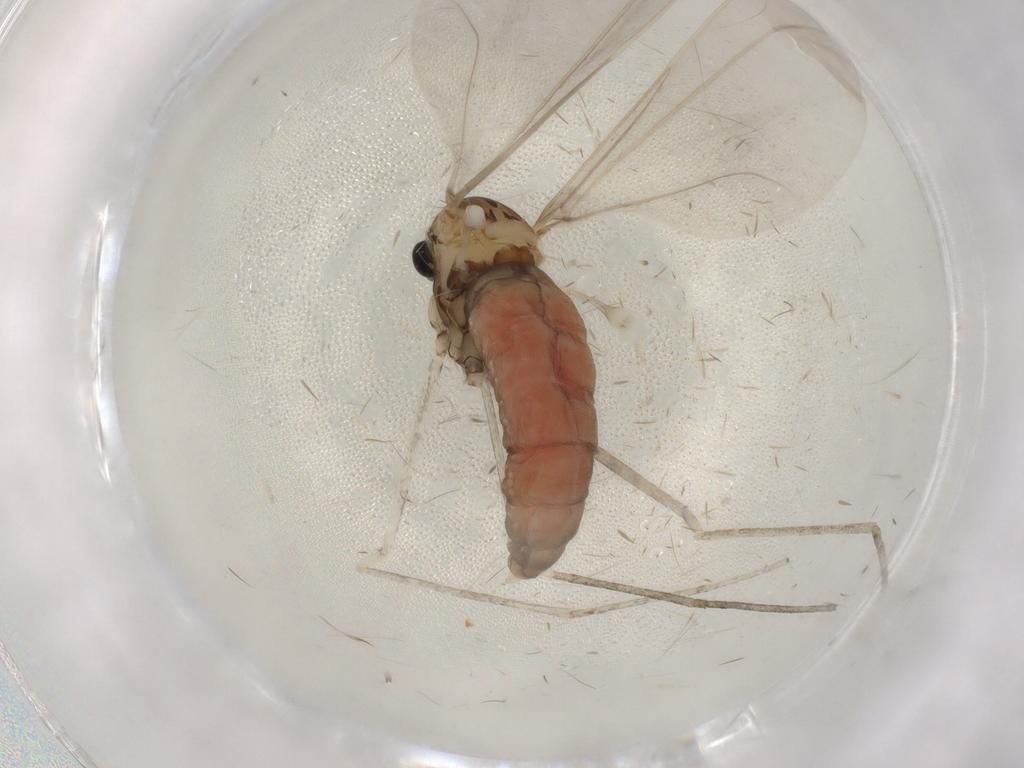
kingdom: Animalia
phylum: Arthropoda
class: Insecta
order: Diptera
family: Cecidomyiidae
